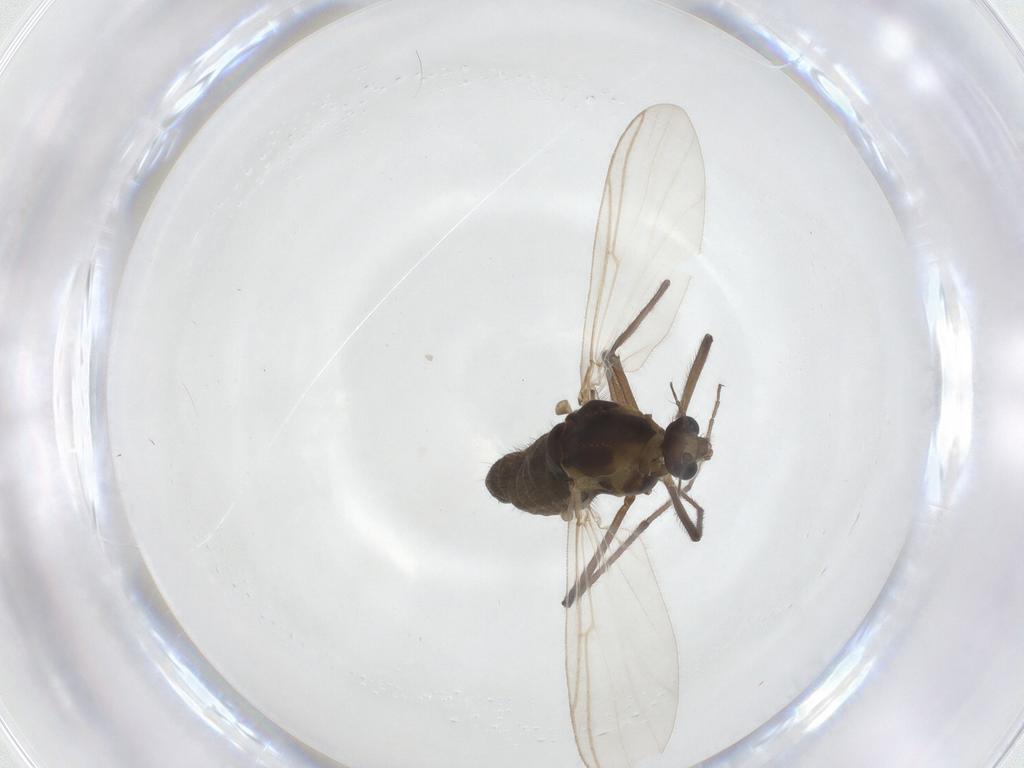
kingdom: Animalia
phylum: Arthropoda
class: Insecta
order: Diptera
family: Chironomidae
